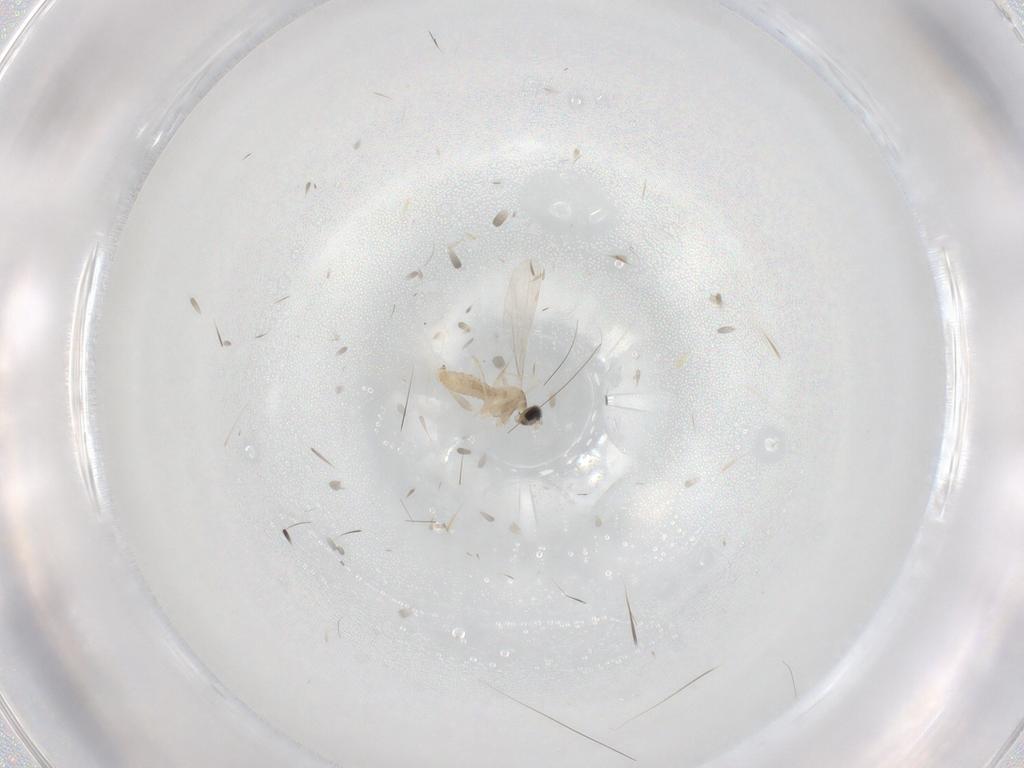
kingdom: Animalia
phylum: Arthropoda
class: Insecta
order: Diptera
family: Cecidomyiidae
